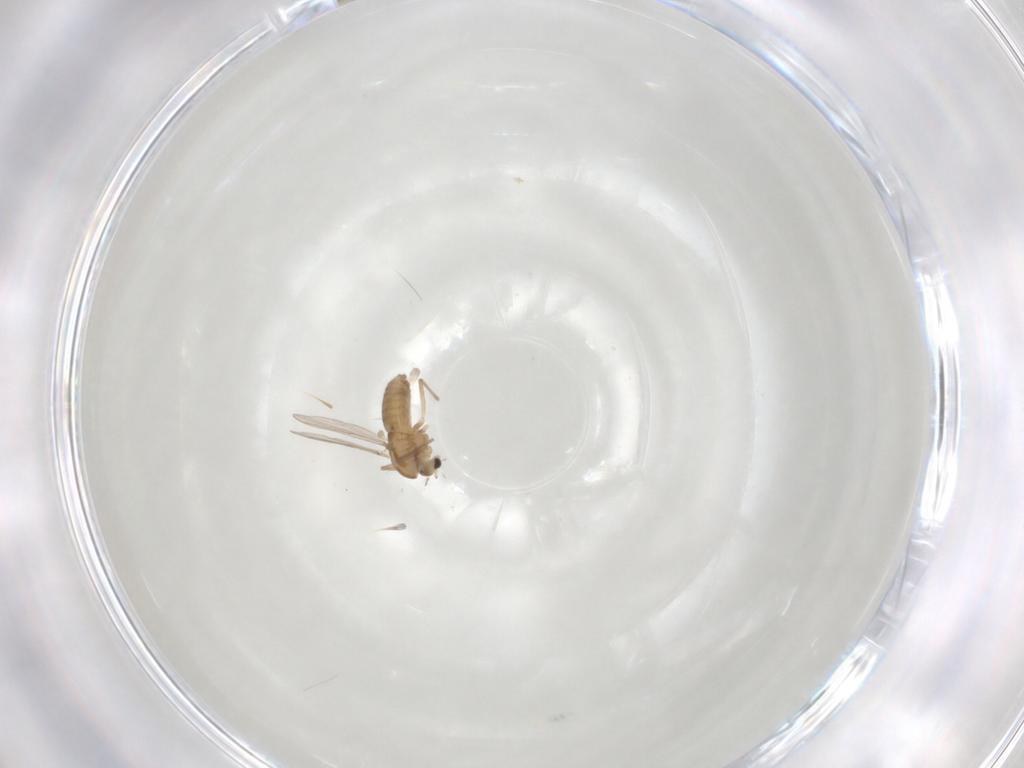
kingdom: Animalia
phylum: Arthropoda
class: Insecta
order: Diptera
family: Chironomidae
